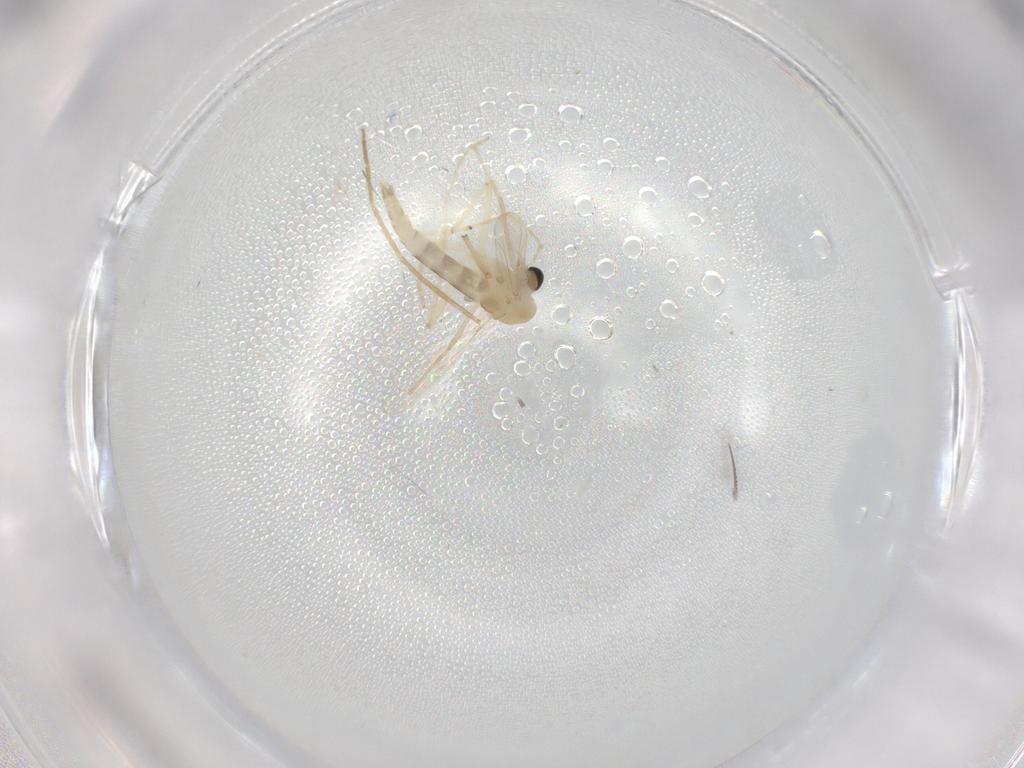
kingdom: Animalia
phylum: Arthropoda
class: Insecta
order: Diptera
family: Chironomidae
